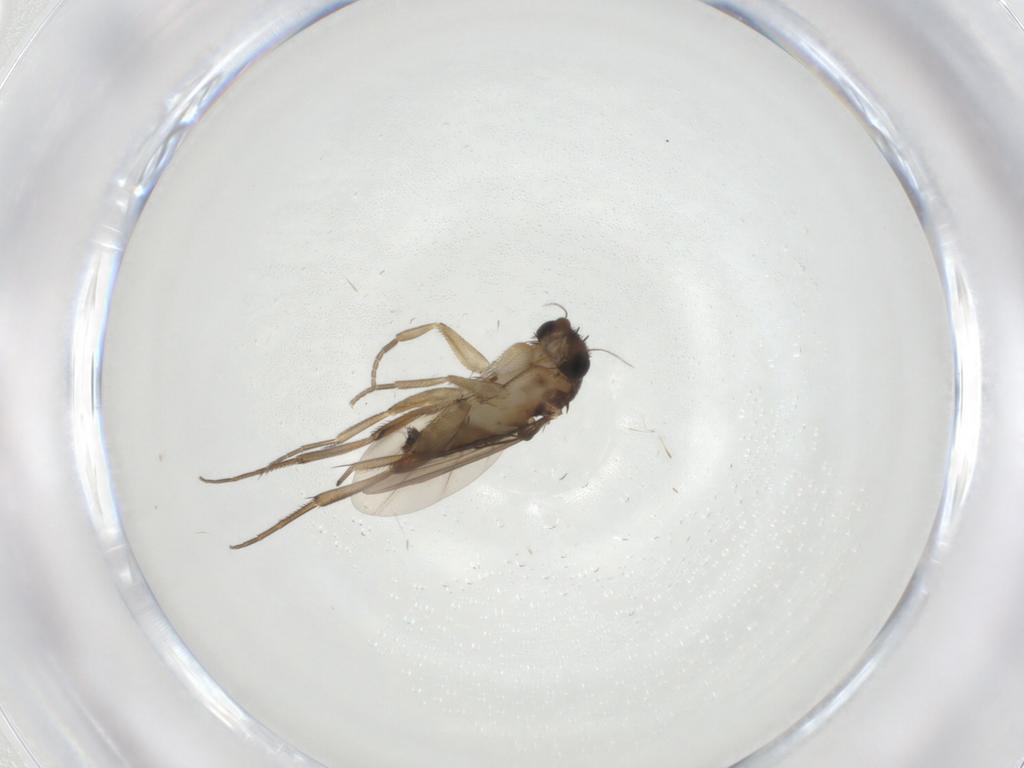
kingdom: Animalia
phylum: Arthropoda
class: Insecta
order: Diptera
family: Phoridae
